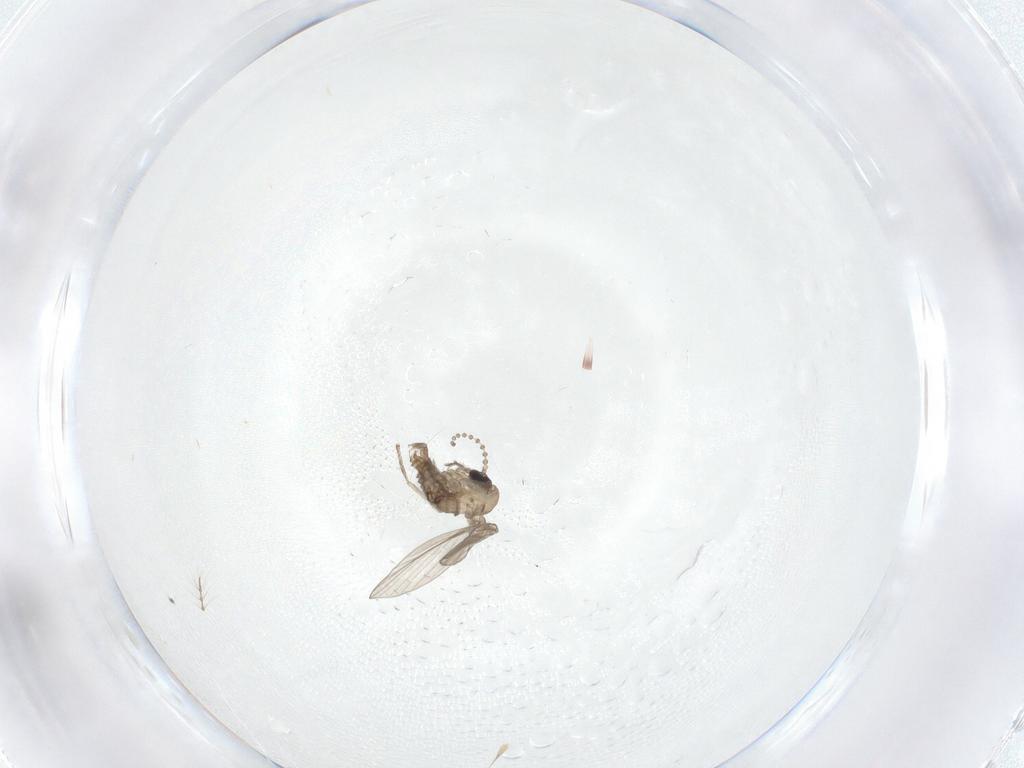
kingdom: Animalia
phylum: Arthropoda
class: Insecta
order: Diptera
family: Psychodidae
